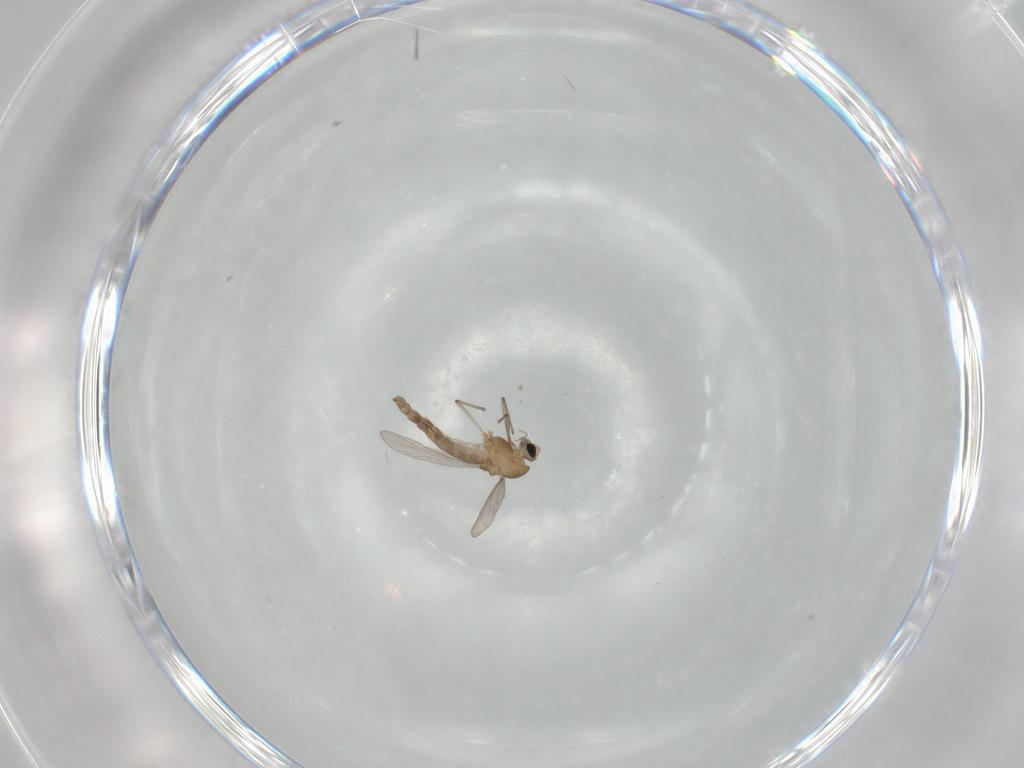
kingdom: Animalia
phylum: Arthropoda
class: Insecta
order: Diptera
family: Chironomidae
